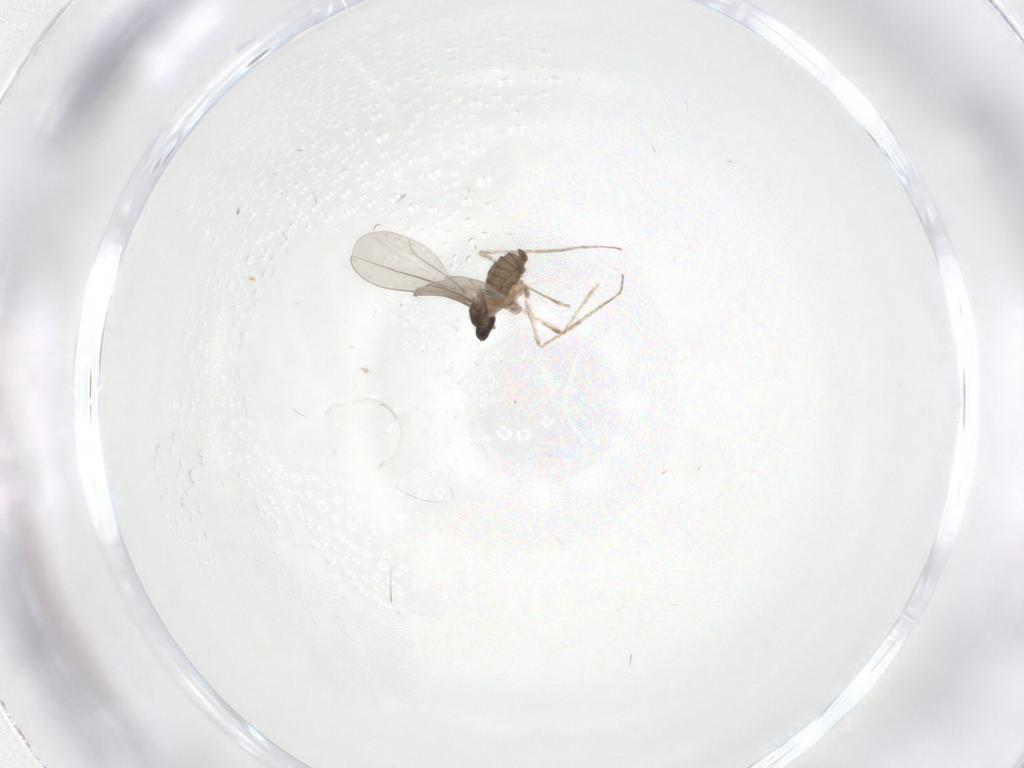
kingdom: Animalia
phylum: Arthropoda
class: Insecta
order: Diptera
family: Cecidomyiidae
